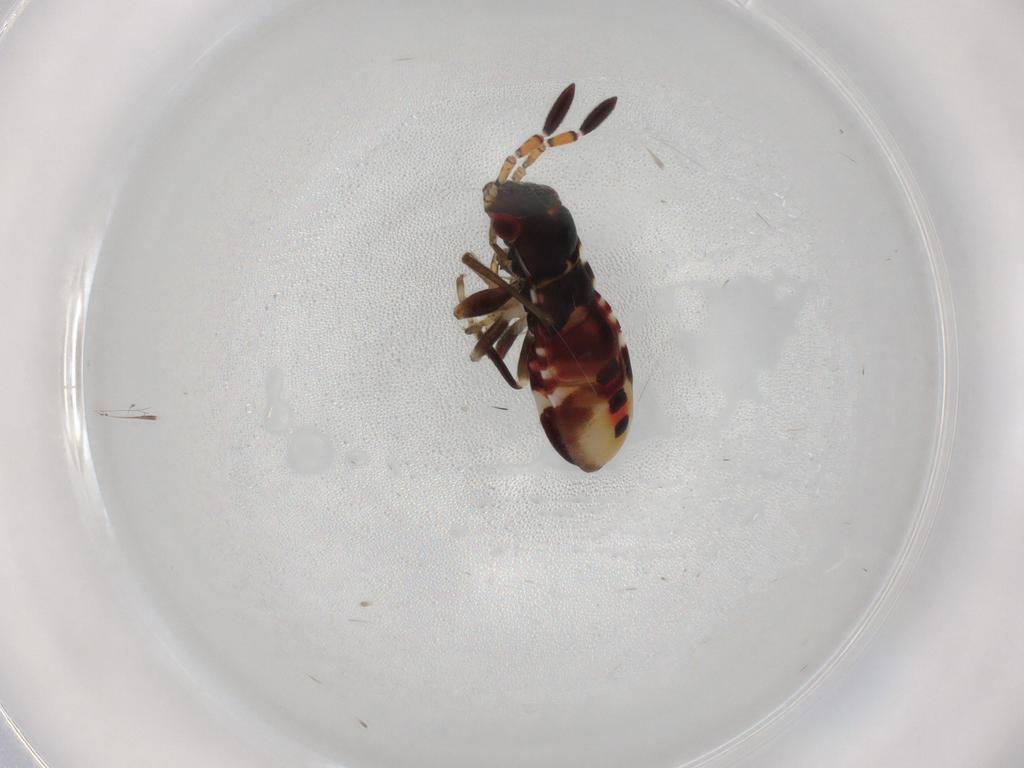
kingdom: Animalia
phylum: Arthropoda
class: Insecta
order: Hemiptera
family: Rhyparochromidae
